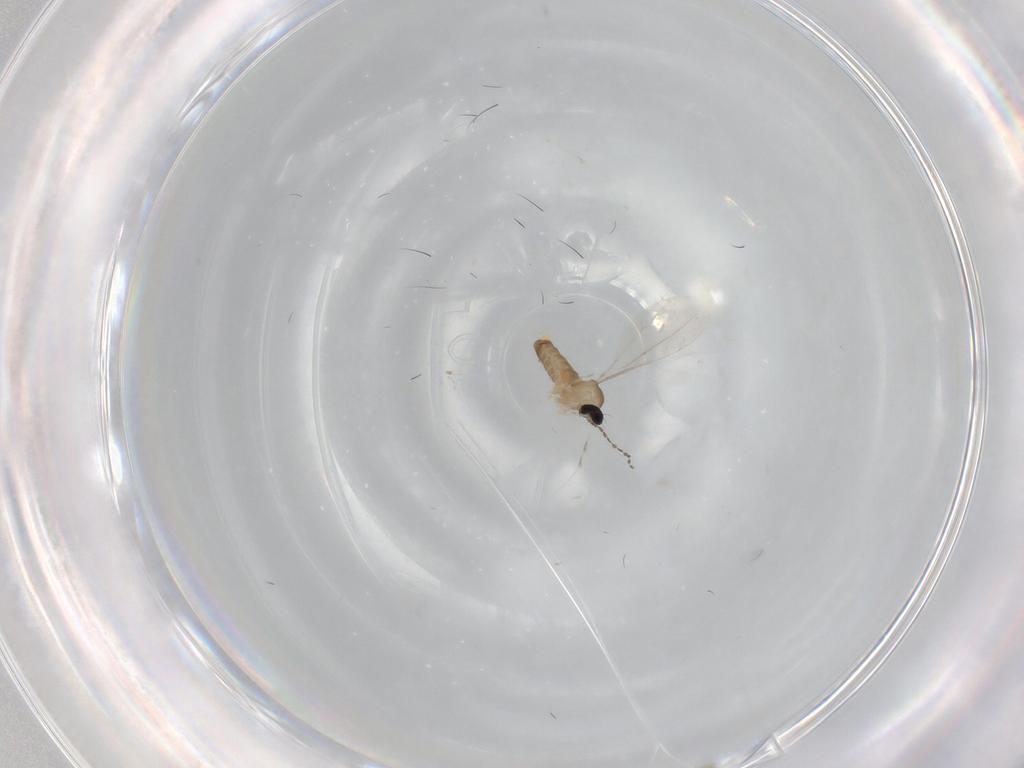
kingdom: Animalia
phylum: Arthropoda
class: Insecta
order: Diptera
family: Cecidomyiidae
